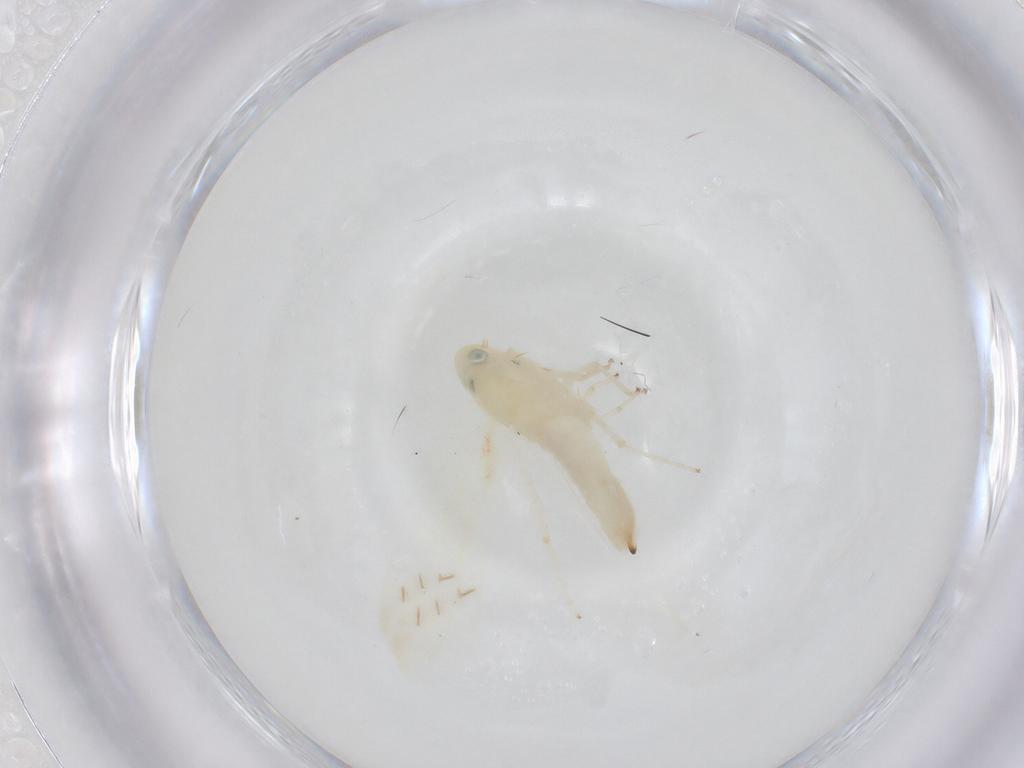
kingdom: Animalia
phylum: Arthropoda
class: Insecta
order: Hemiptera
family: Cicadellidae
